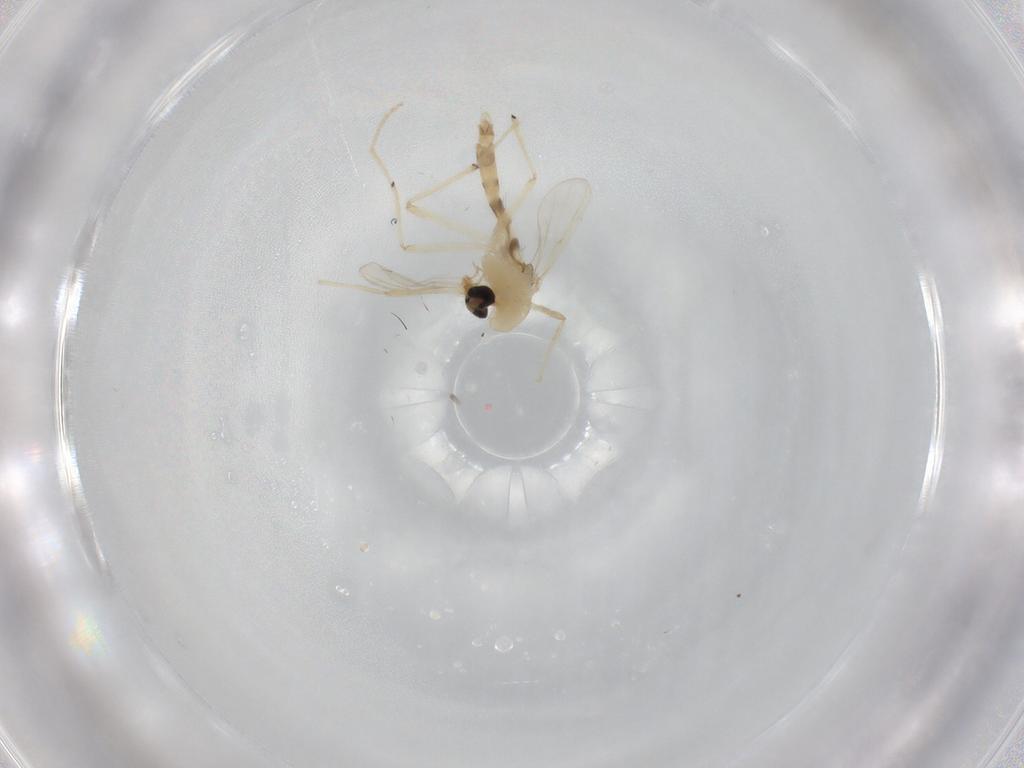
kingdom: Animalia
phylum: Arthropoda
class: Insecta
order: Diptera
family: Chironomidae
